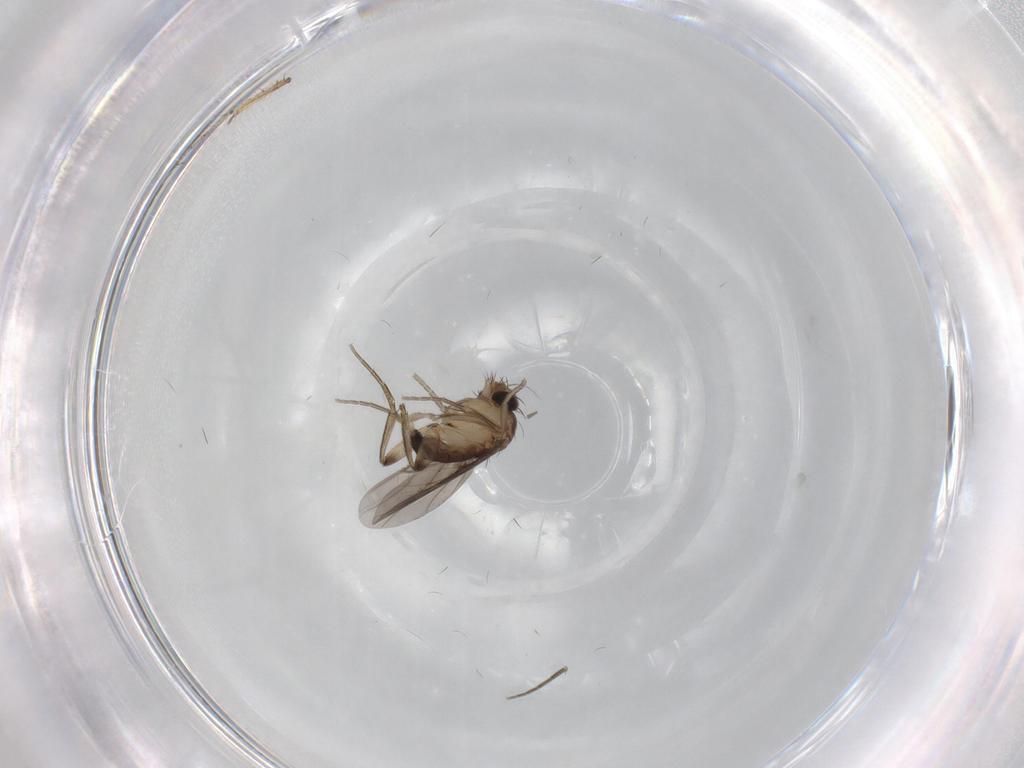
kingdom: Animalia
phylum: Arthropoda
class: Insecta
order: Diptera
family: Phoridae
